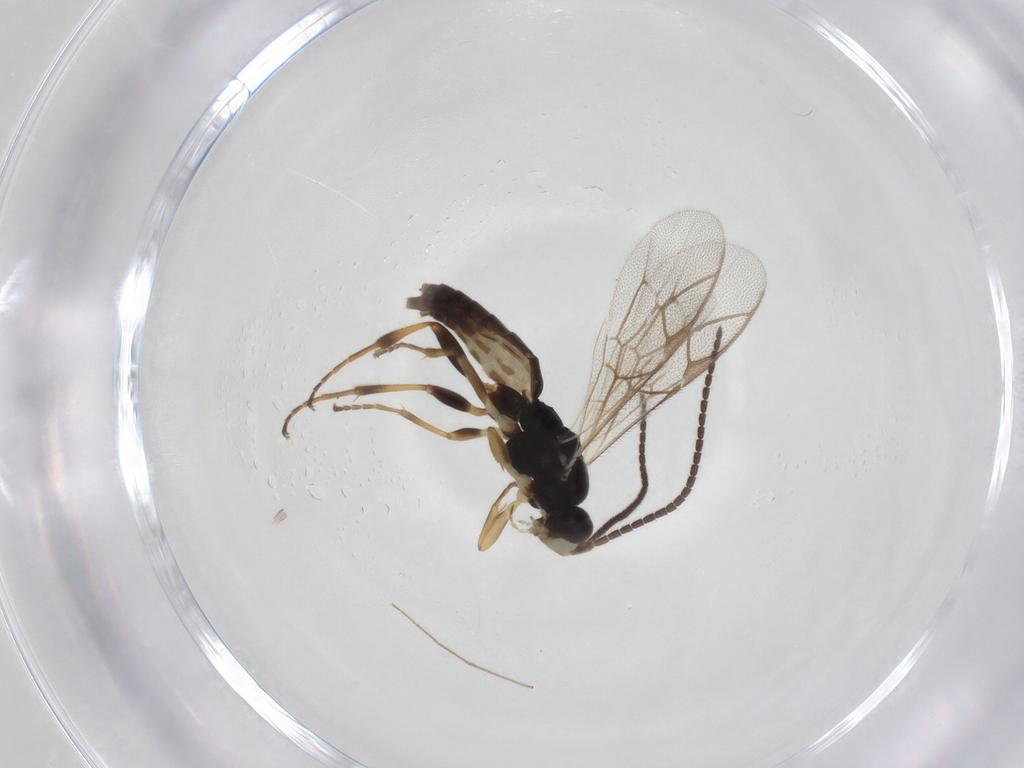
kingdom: Animalia
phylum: Arthropoda
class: Insecta
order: Hymenoptera
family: Ichneumonidae
